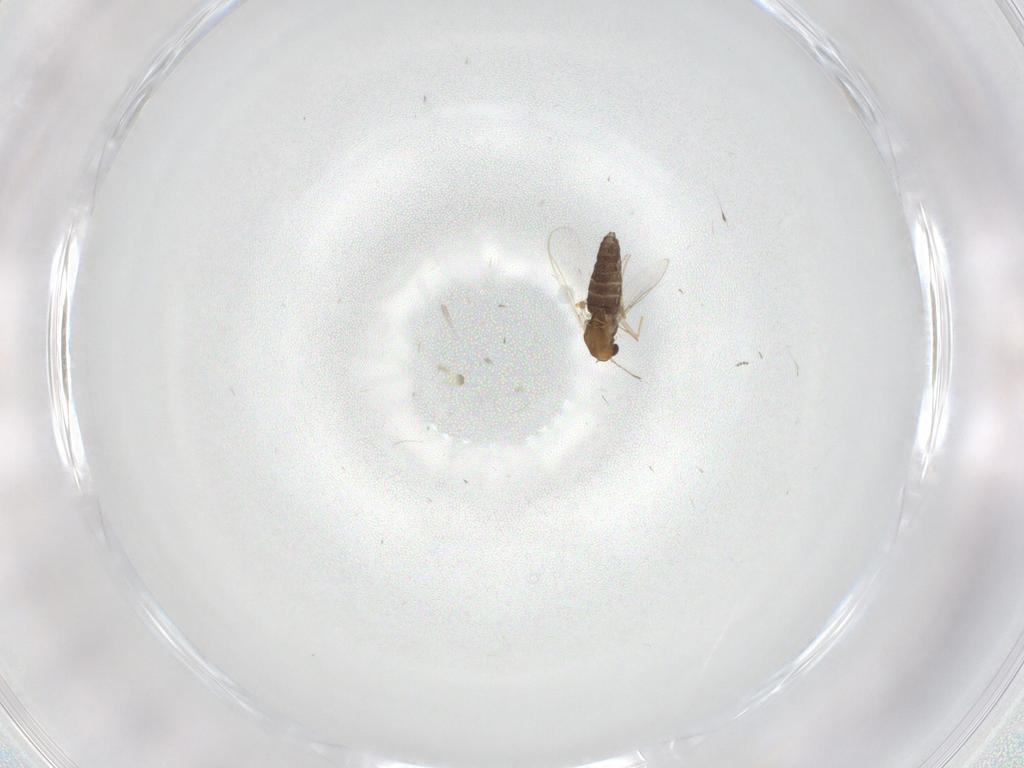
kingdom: Animalia
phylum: Arthropoda
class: Insecta
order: Diptera
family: Chironomidae
